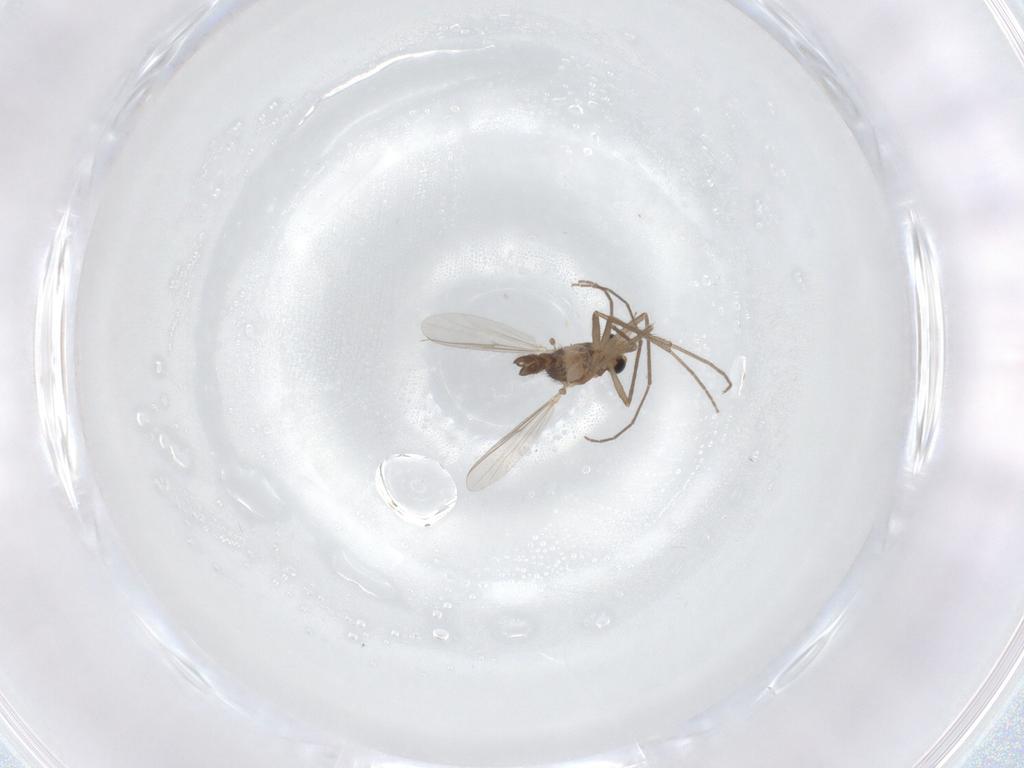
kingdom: Animalia
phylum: Arthropoda
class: Insecta
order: Diptera
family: Chironomidae
